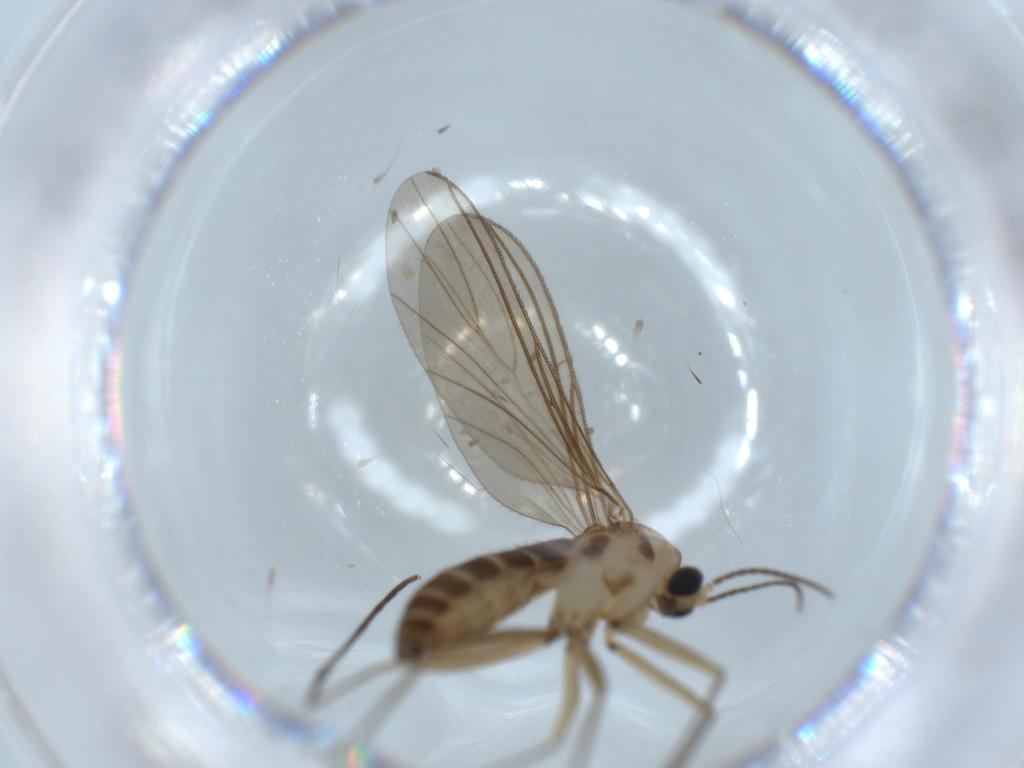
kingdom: Animalia
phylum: Arthropoda
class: Insecta
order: Diptera
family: Sciaridae
